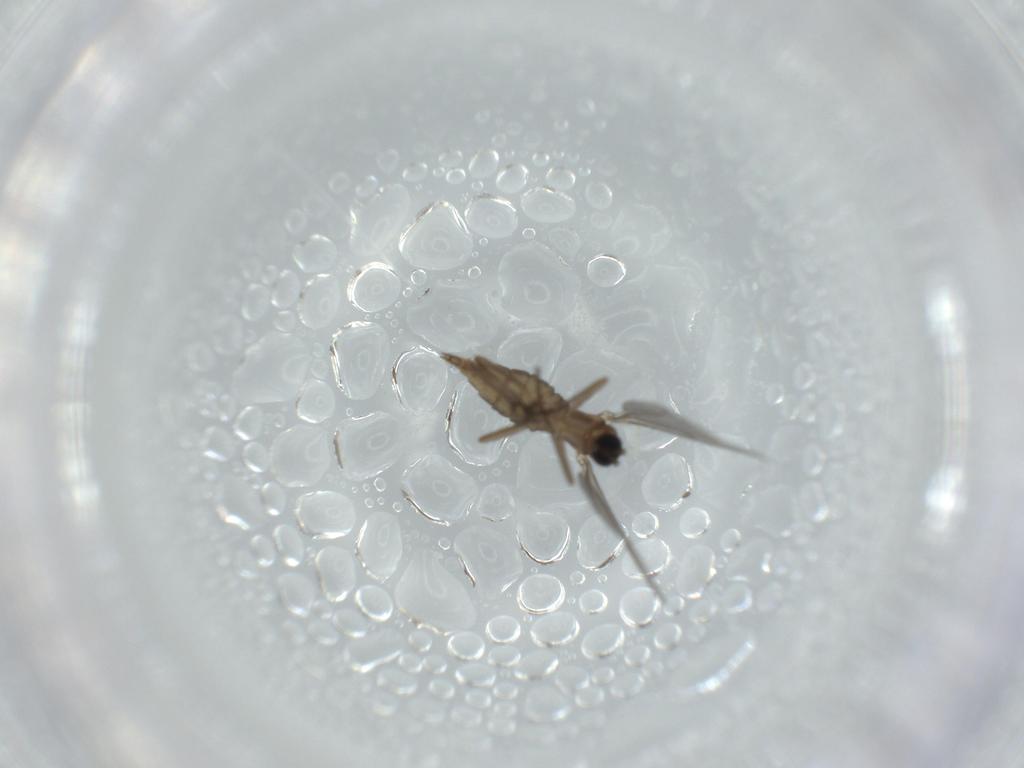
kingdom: Animalia
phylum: Arthropoda
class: Insecta
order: Diptera
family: Sciaridae
